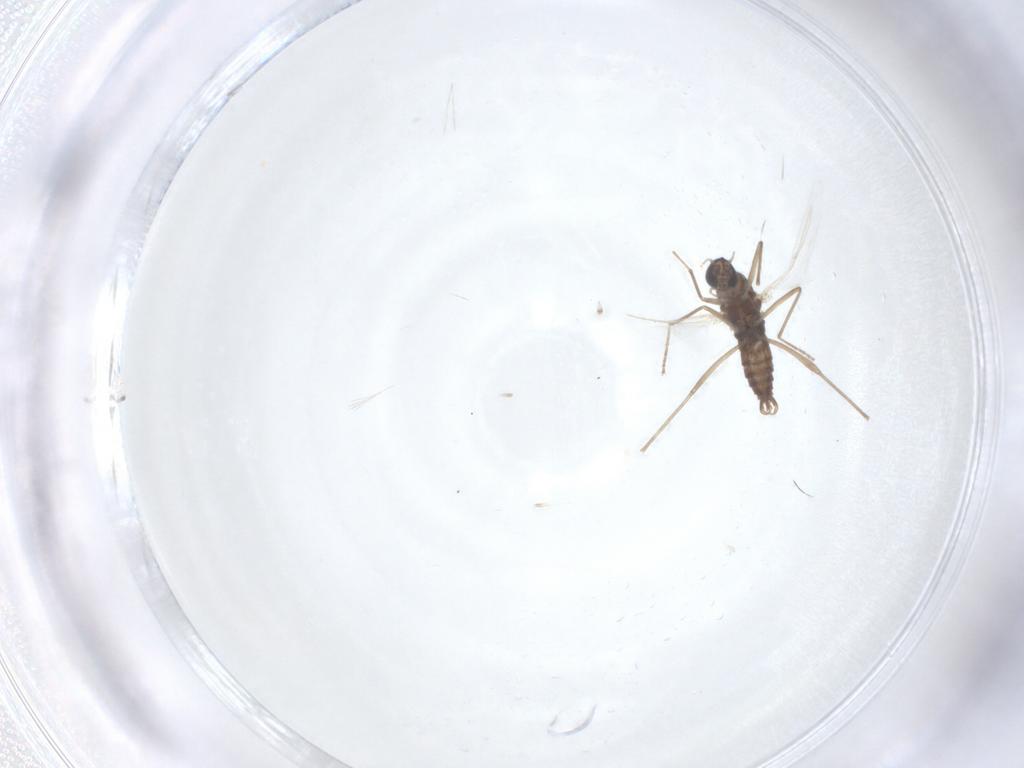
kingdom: Animalia
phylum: Arthropoda
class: Insecta
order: Diptera
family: Cecidomyiidae
